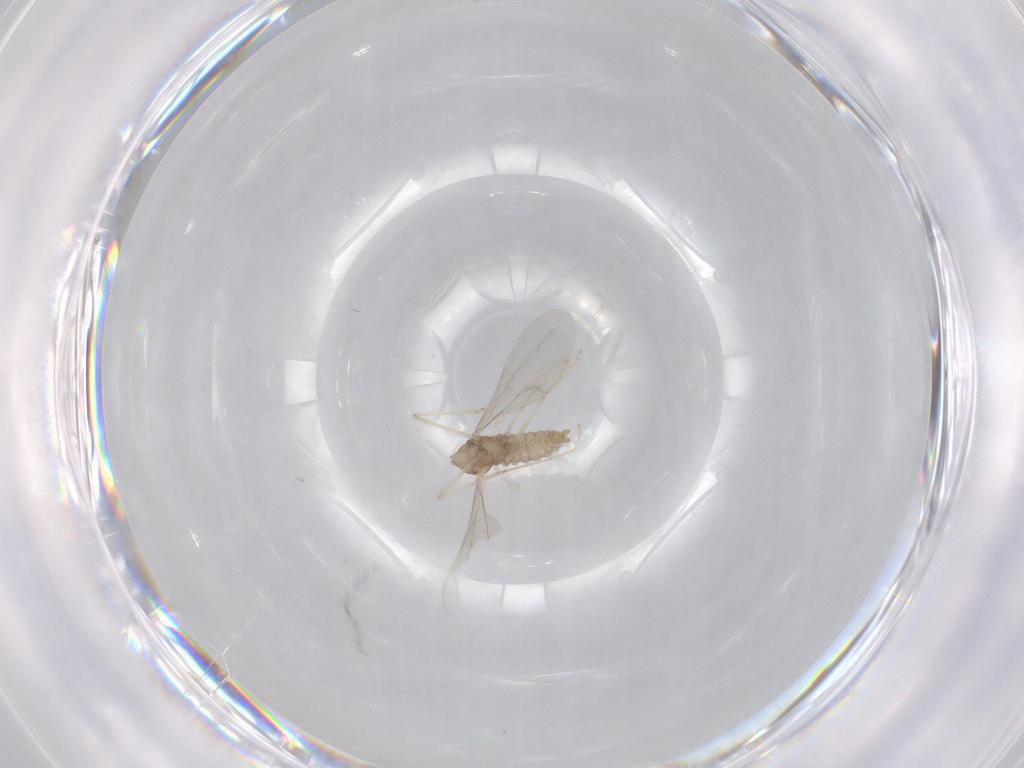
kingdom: Animalia
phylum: Arthropoda
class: Insecta
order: Diptera
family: Cecidomyiidae
